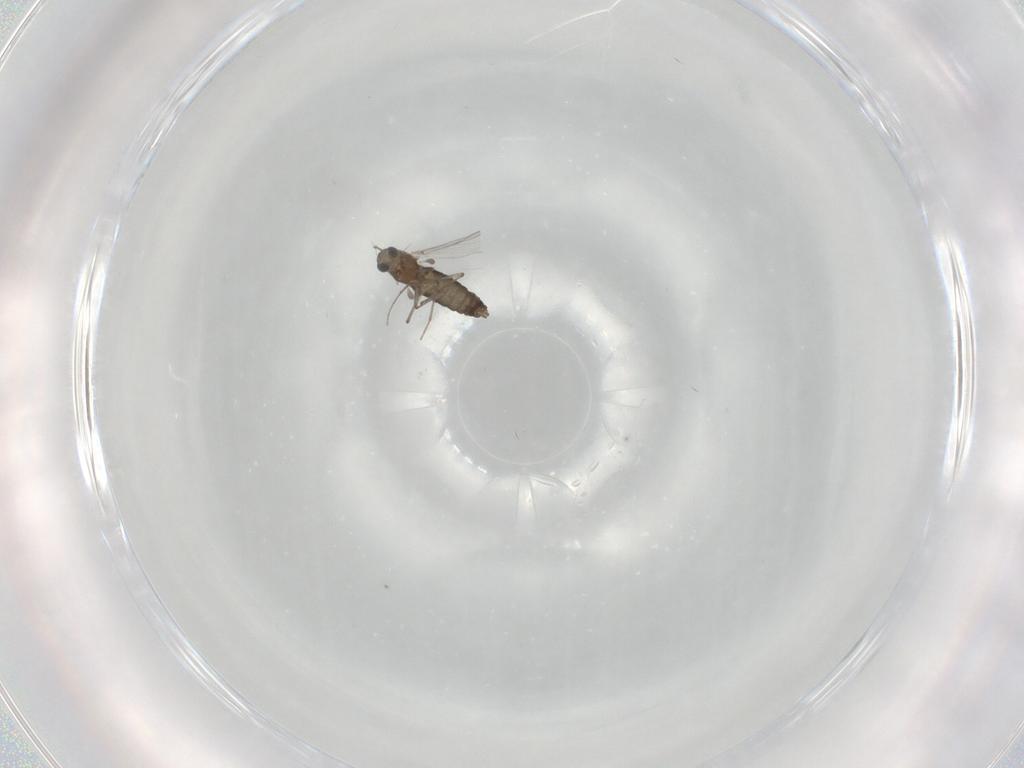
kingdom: Animalia
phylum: Arthropoda
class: Insecta
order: Diptera
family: Chironomidae
